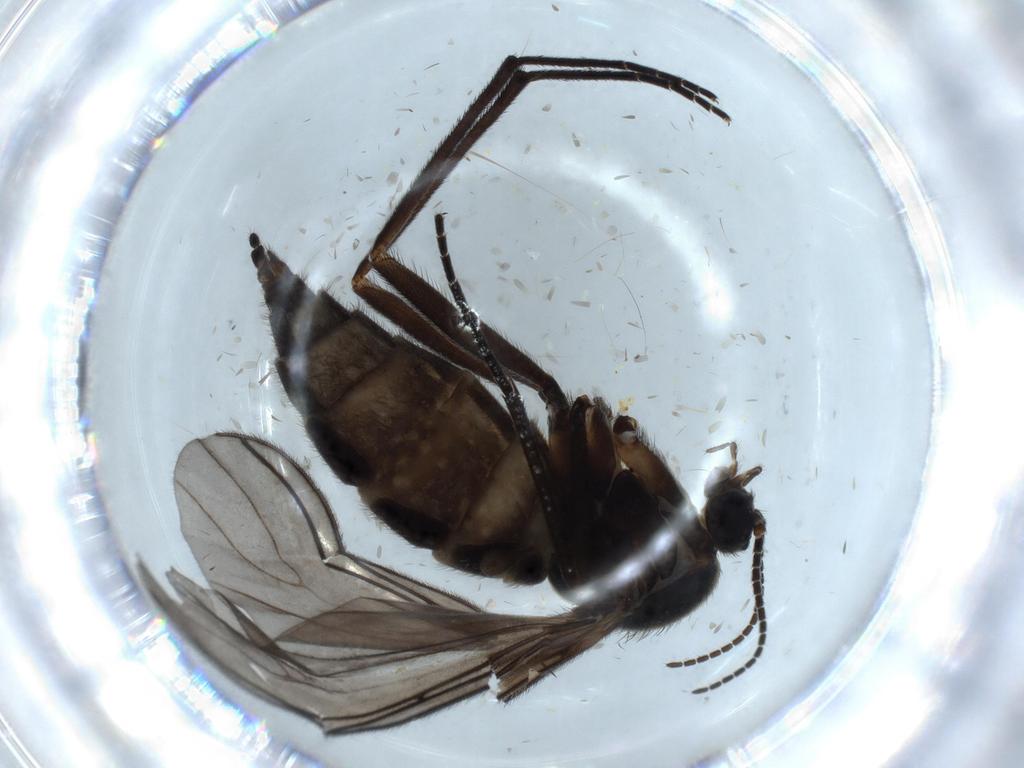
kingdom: Animalia
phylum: Arthropoda
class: Insecta
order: Diptera
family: Sciaridae
